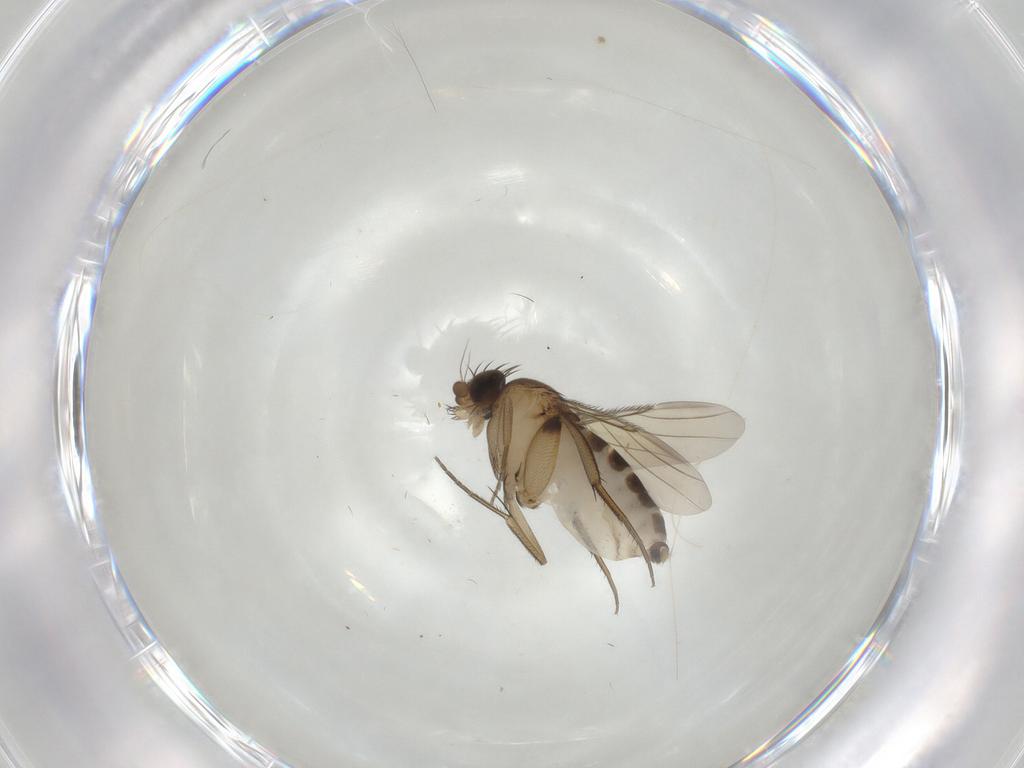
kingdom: Animalia
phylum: Arthropoda
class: Insecta
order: Diptera
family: Phoridae
